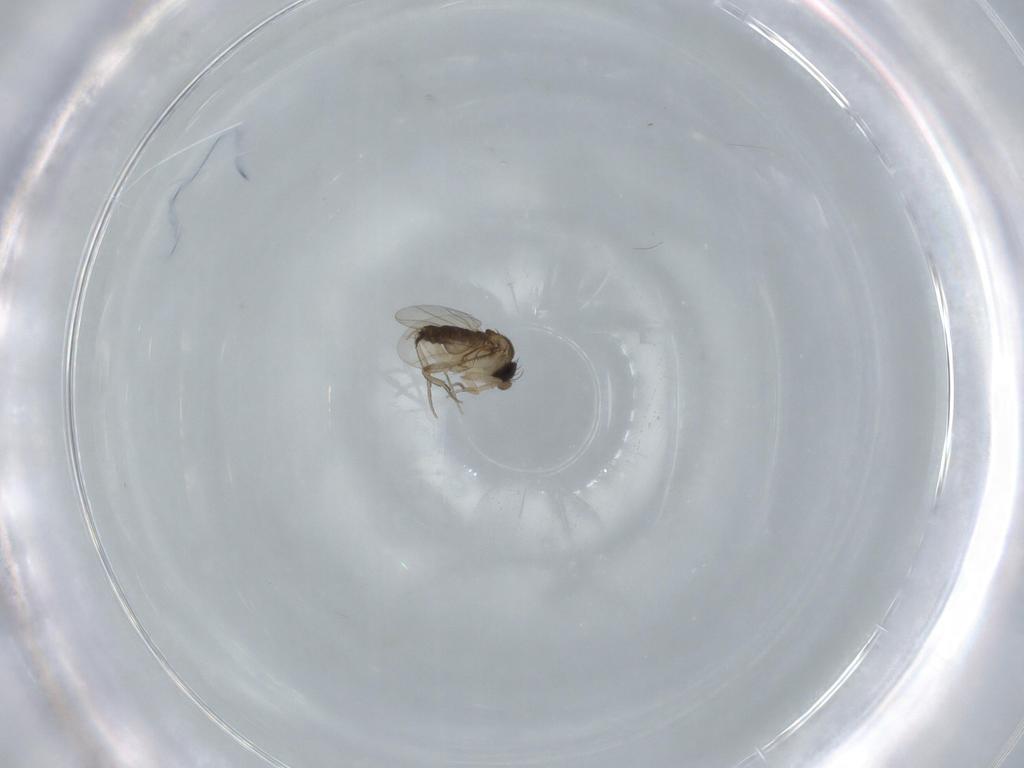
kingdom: Animalia
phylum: Arthropoda
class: Insecta
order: Diptera
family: Phoridae
